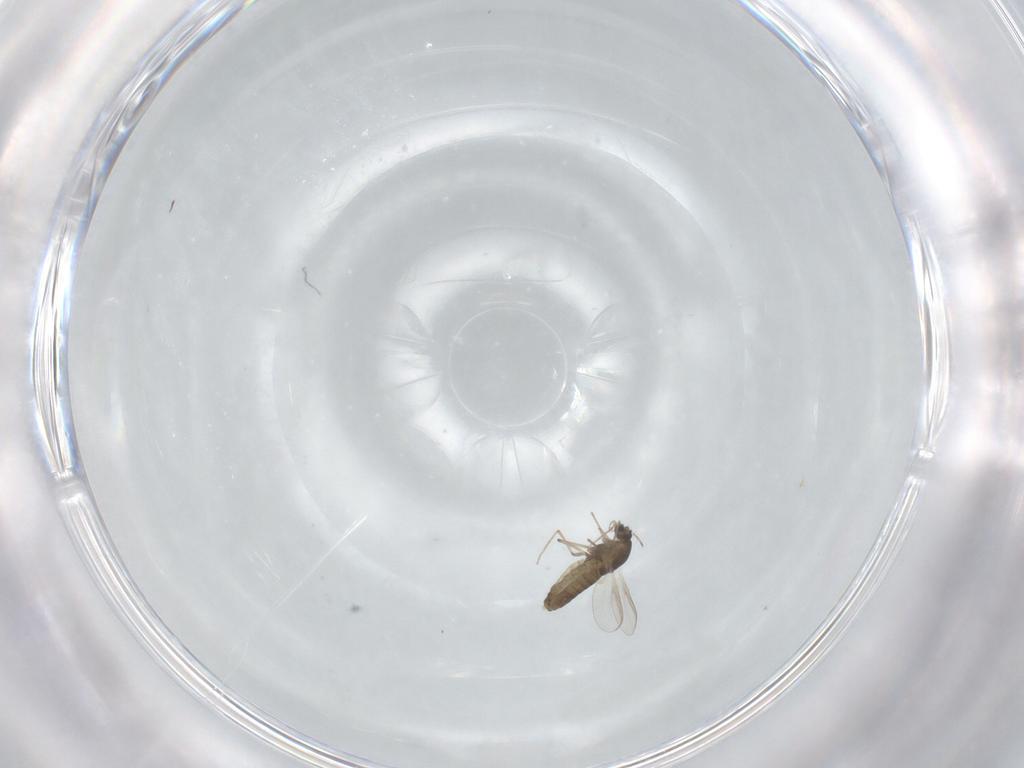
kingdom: Animalia
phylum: Arthropoda
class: Insecta
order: Diptera
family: Chironomidae
